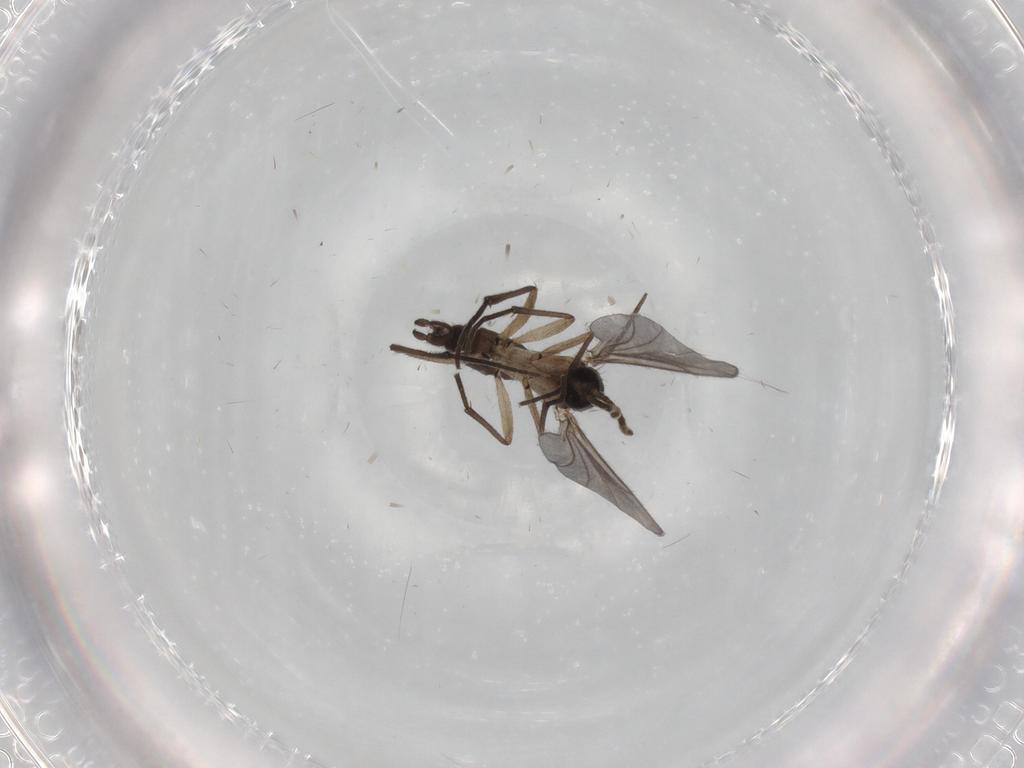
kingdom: Animalia
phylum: Arthropoda
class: Insecta
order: Diptera
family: Limoniidae
